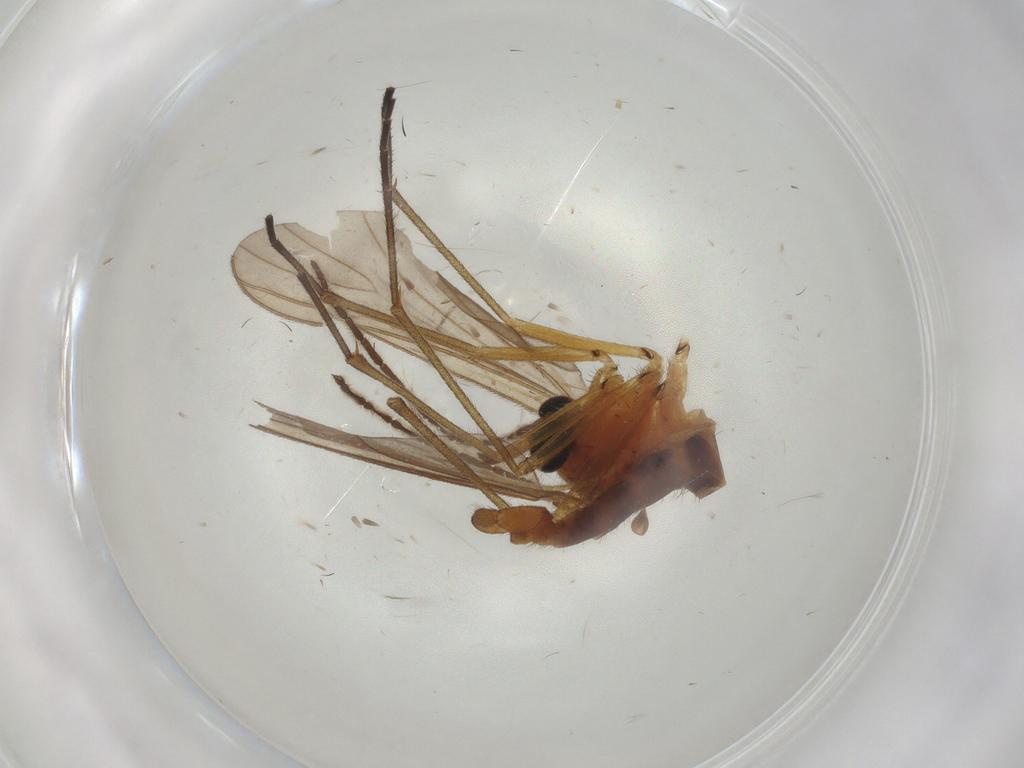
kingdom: Animalia
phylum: Arthropoda
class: Insecta
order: Diptera
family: Sciaridae
